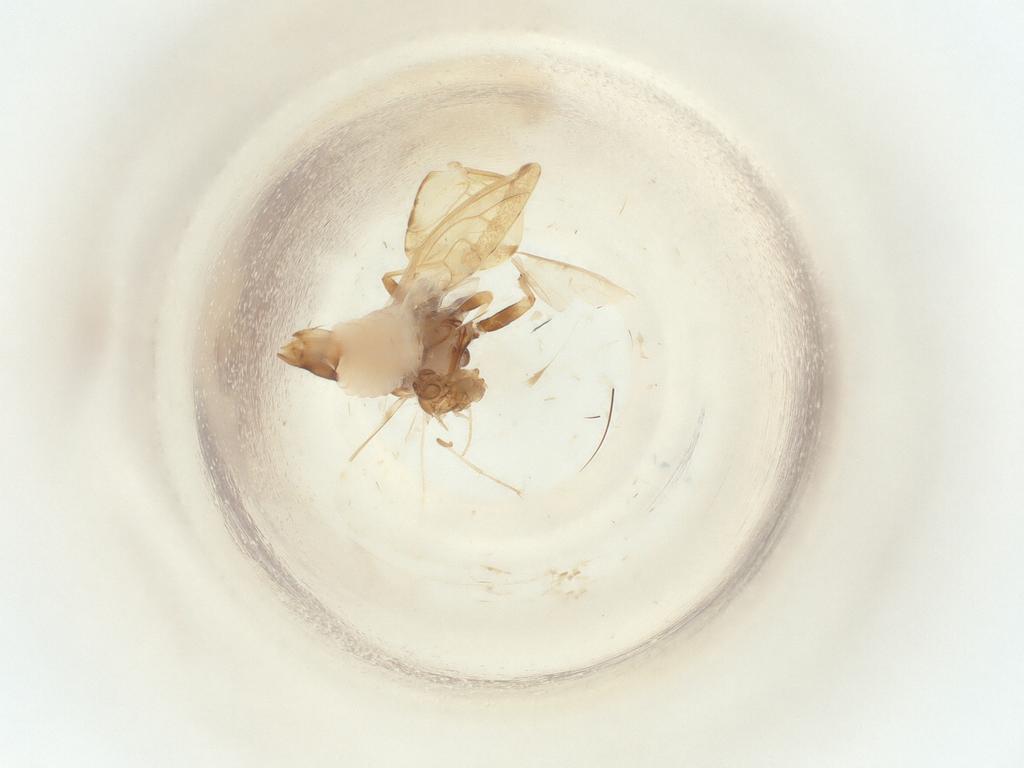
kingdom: Animalia
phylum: Arthropoda
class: Insecta
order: Diptera
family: Sciaridae
